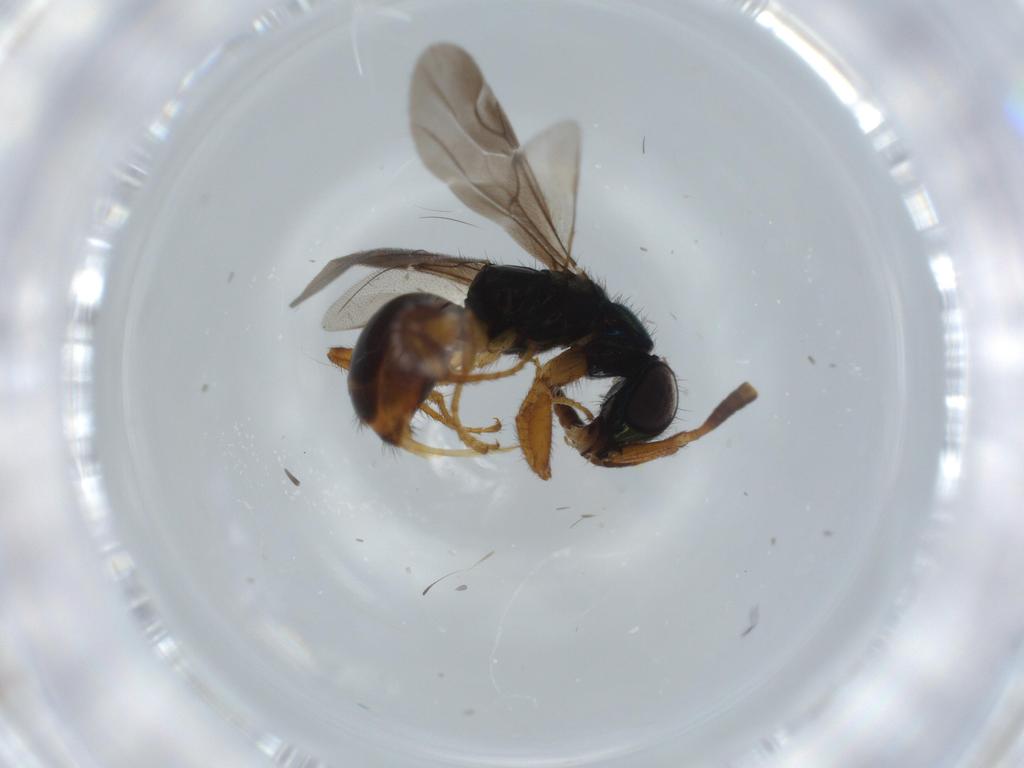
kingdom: Animalia
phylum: Arthropoda
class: Insecta
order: Hymenoptera
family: Chrysididae
